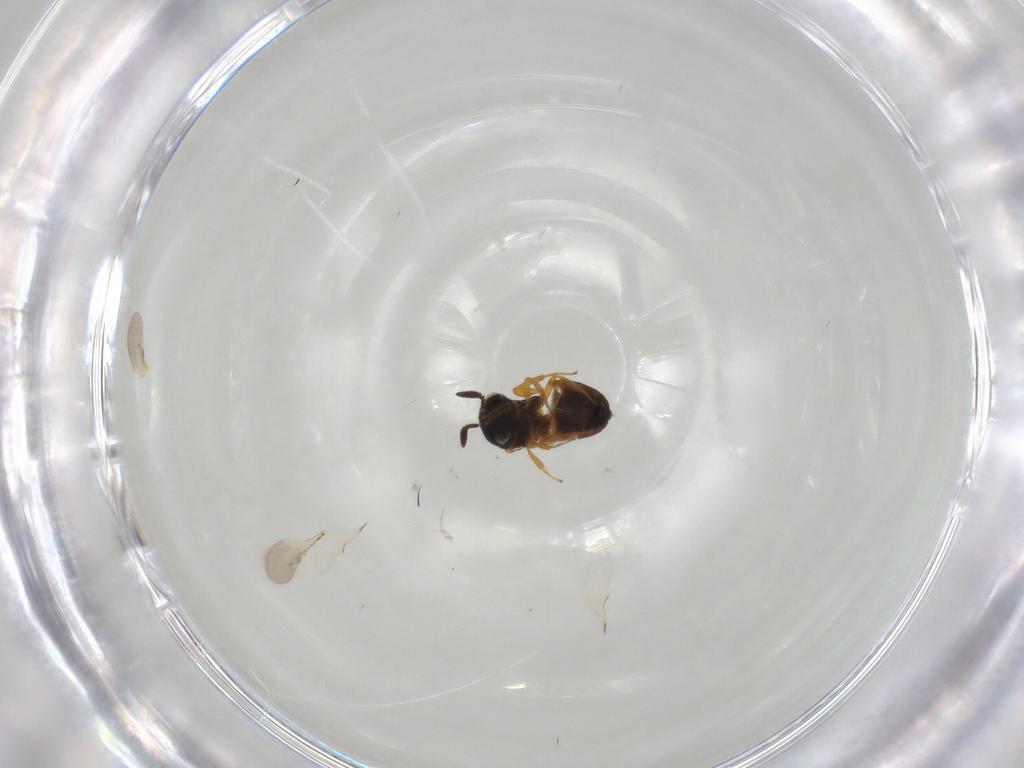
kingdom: Animalia
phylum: Arthropoda
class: Insecta
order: Hymenoptera
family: Scelionidae
